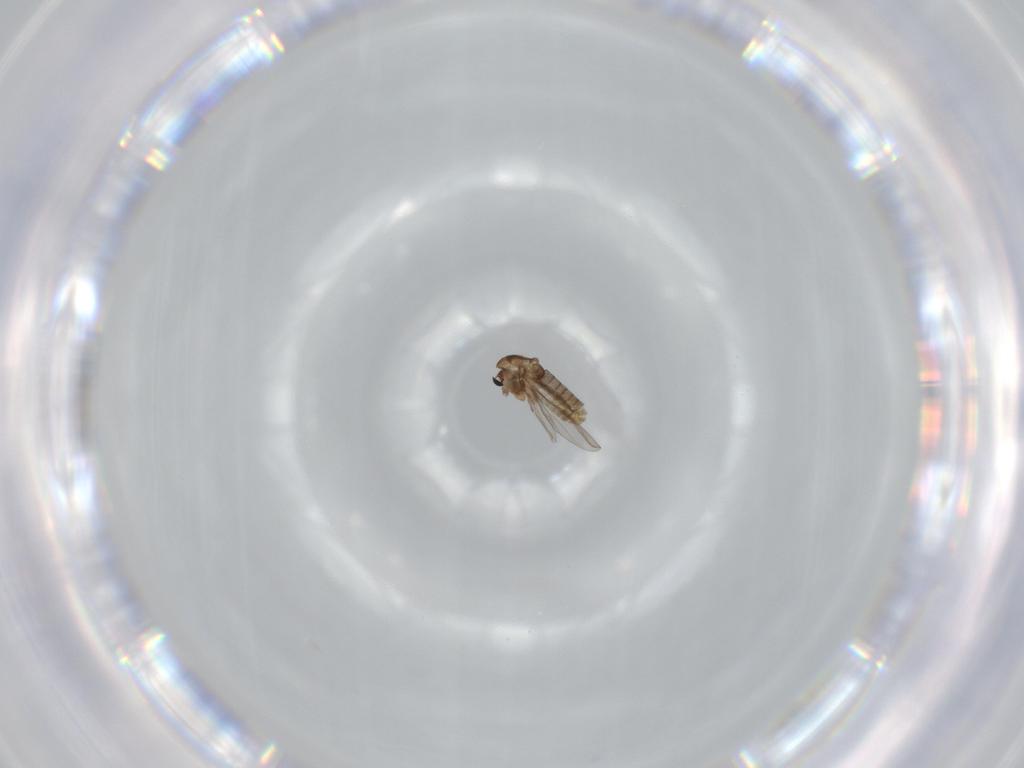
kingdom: Animalia
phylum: Arthropoda
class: Insecta
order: Diptera
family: Chironomidae
